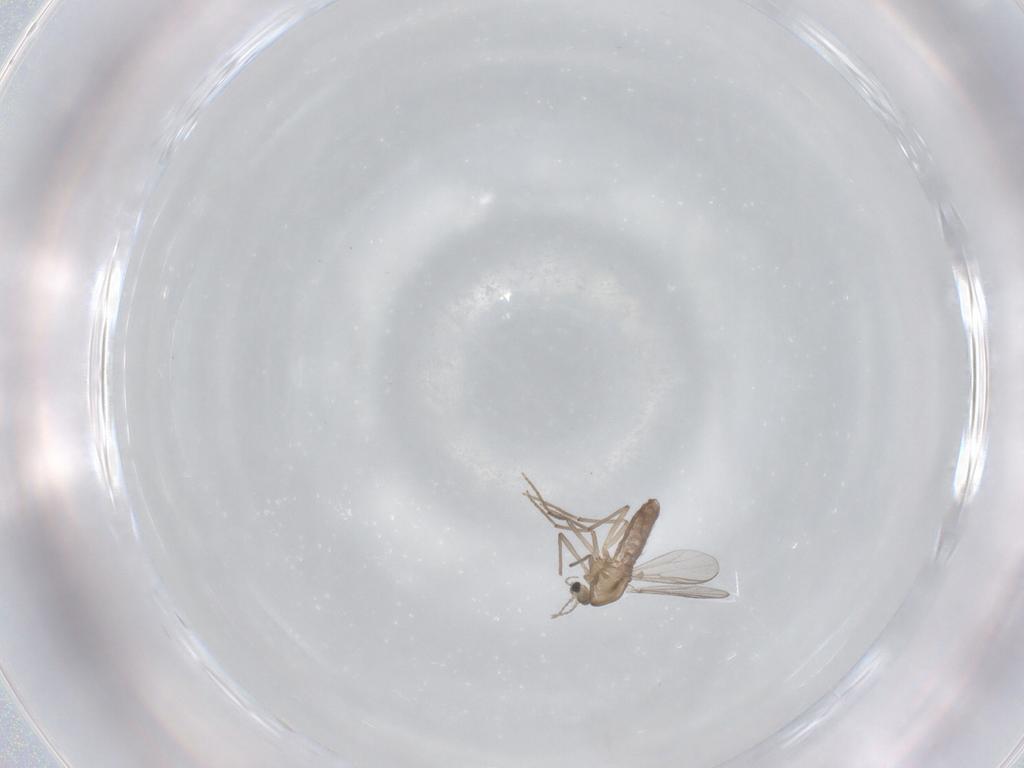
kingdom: Animalia
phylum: Arthropoda
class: Insecta
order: Diptera
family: Chironomidae
